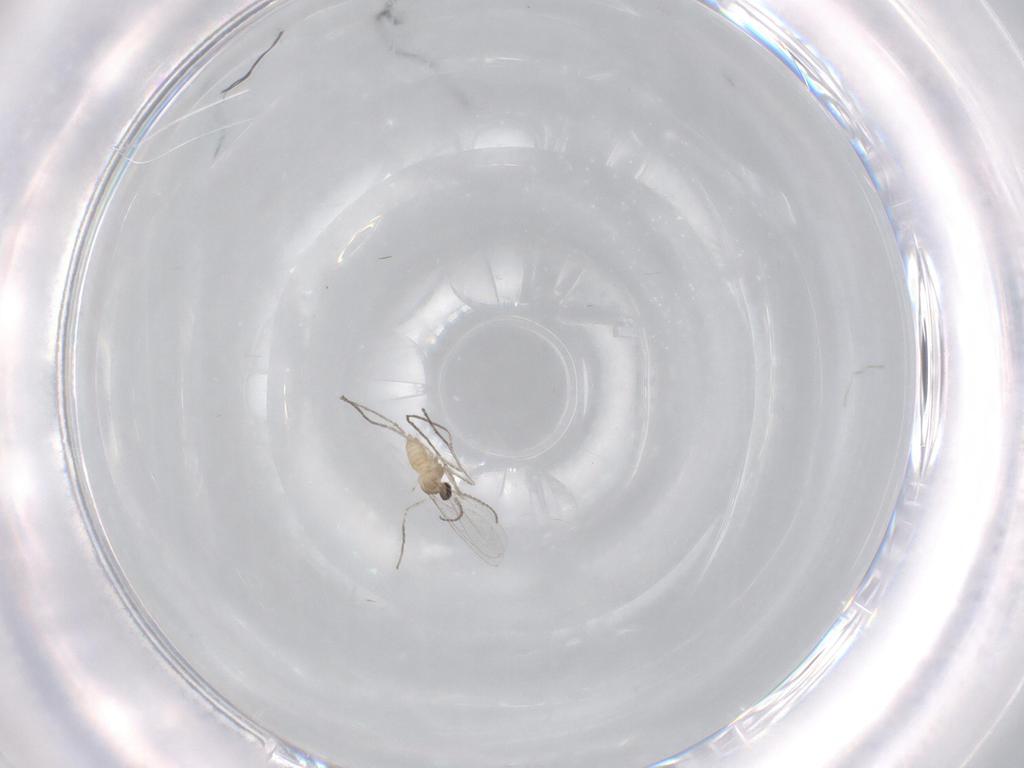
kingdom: Animalia
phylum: Arthropoda
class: Insecta
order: Diptera
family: Cecidomyiidae
